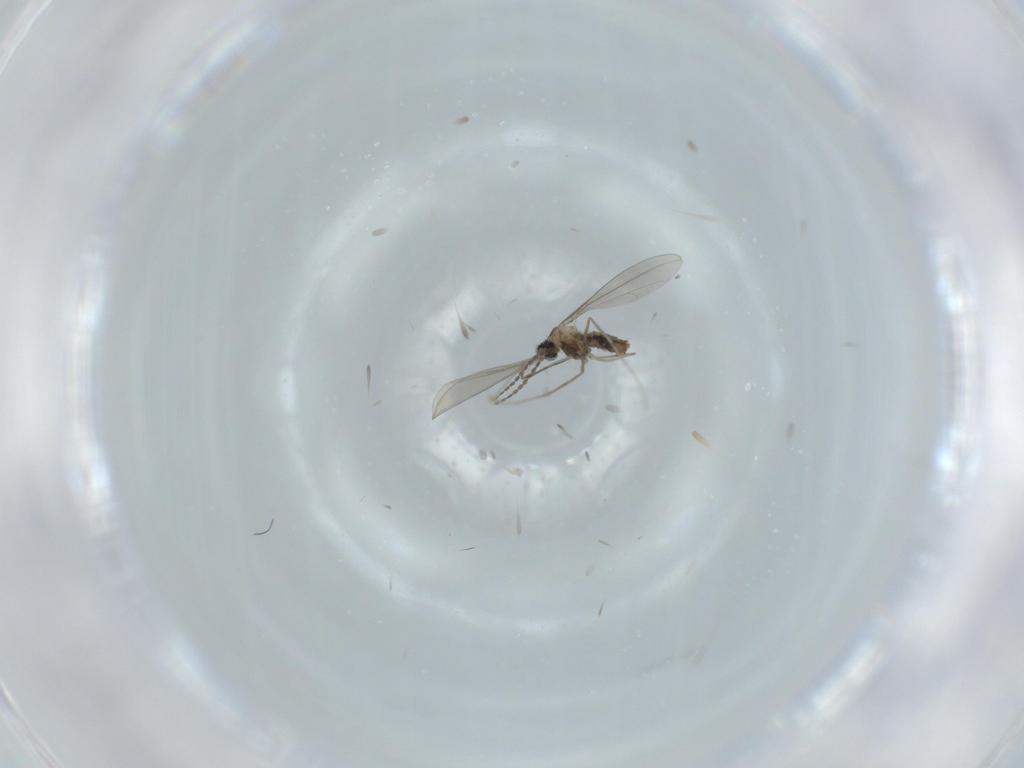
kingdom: Animalia
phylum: Arthropoda
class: Insecta
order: Diptera
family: Cecidomyiidae
